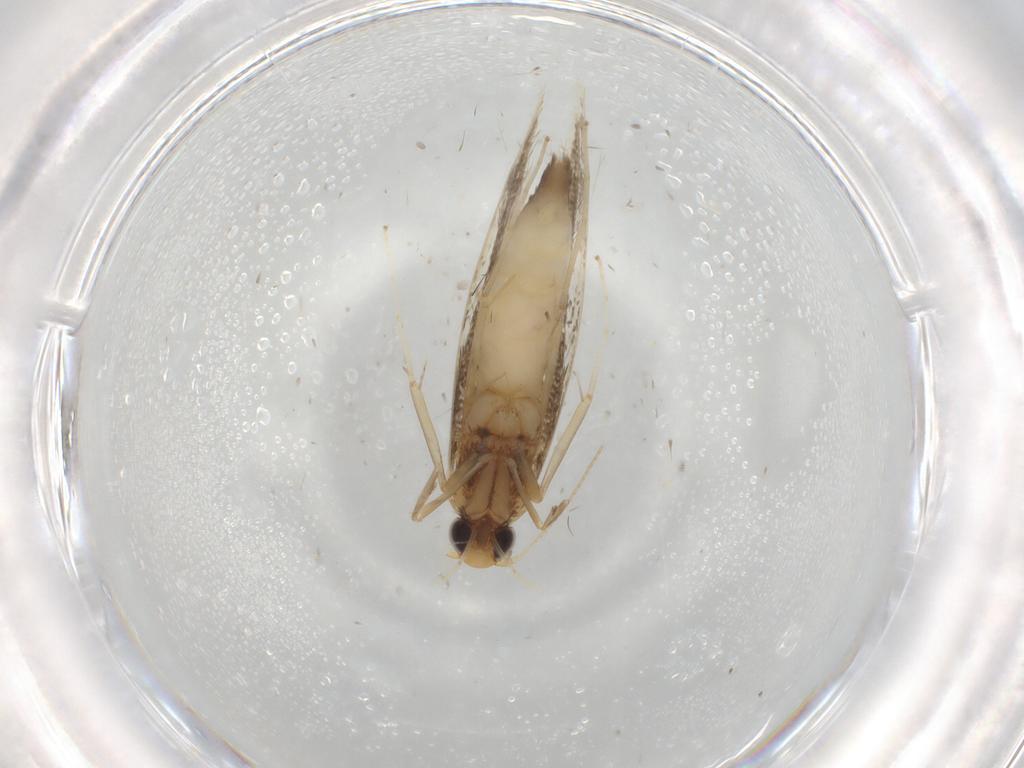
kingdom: Animalia
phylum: Arthropoda
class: Insecta
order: Lepidoptera
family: Gracillariidae
